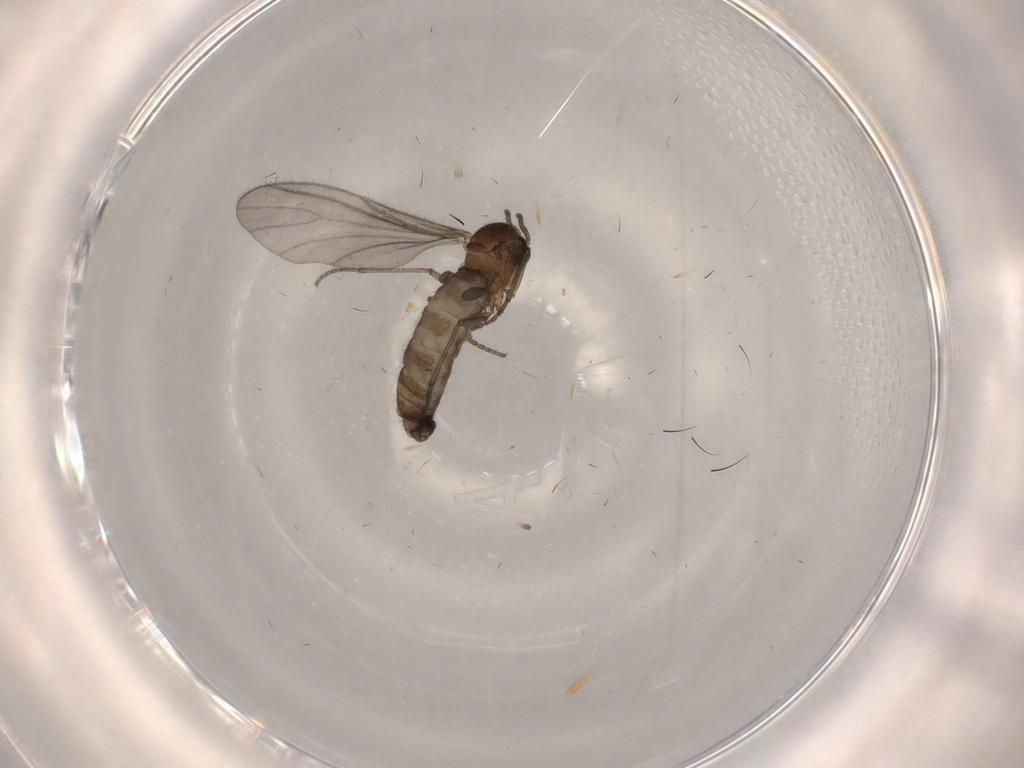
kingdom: Animalia
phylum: Arthropoda
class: Insecta
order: Diptera
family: Sciaridae
